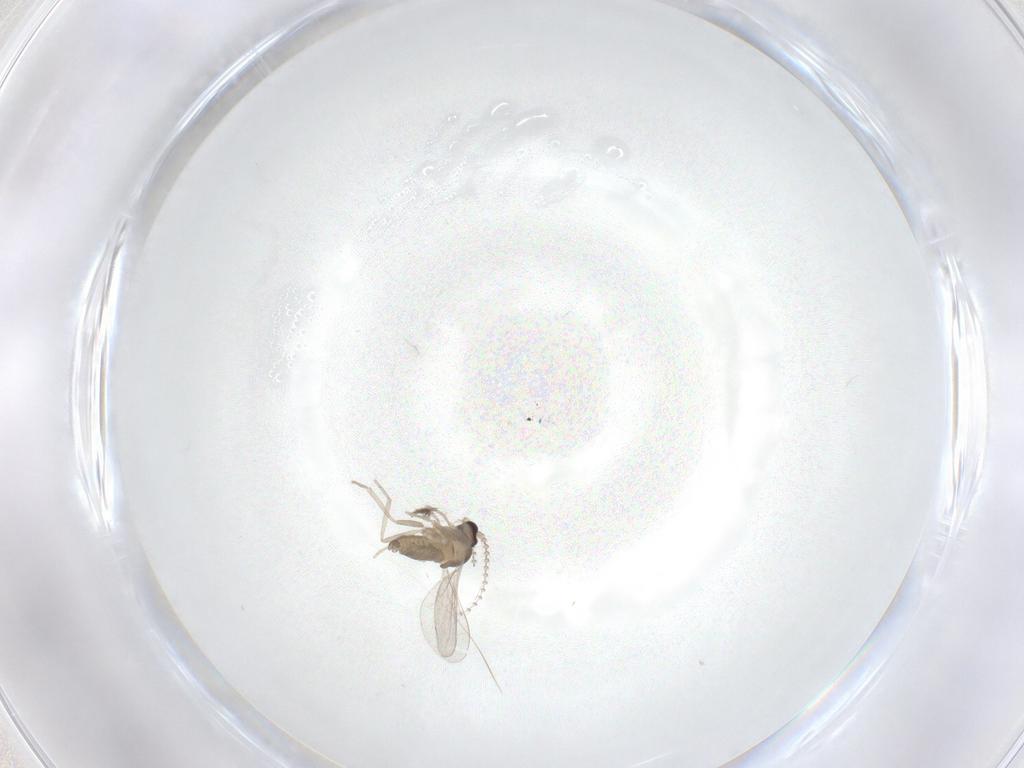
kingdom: Animalia
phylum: Arthropoda
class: Insecta
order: Diptera
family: Cecidomyiidae
